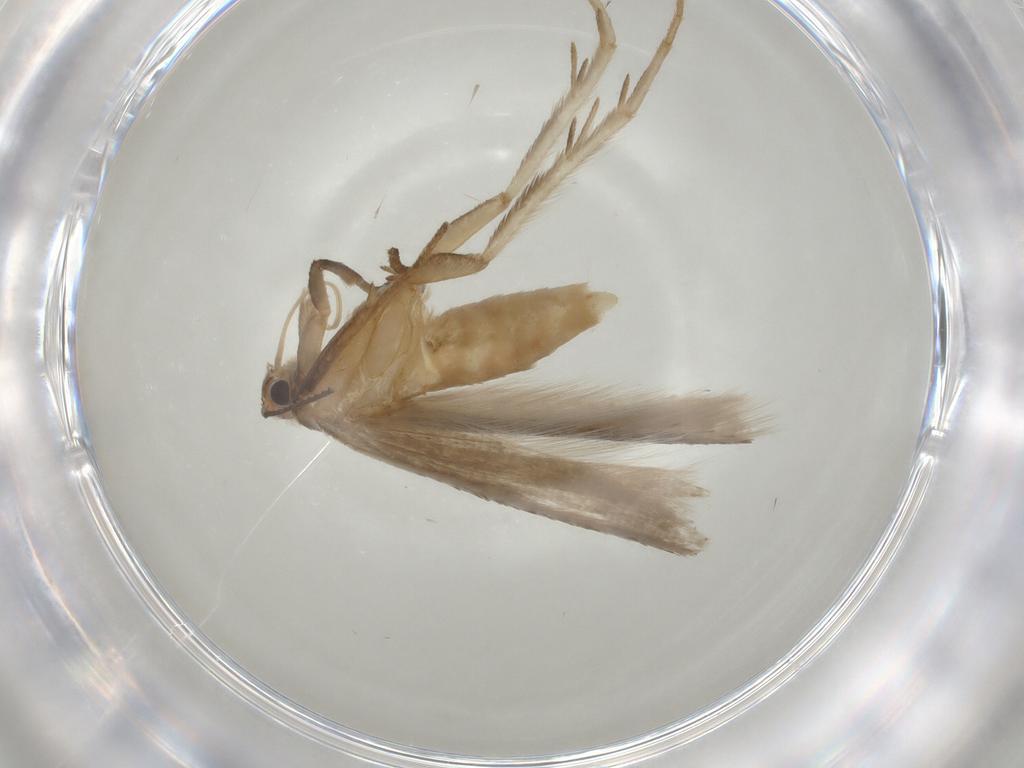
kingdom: Animalia
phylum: Arthropoda
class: Insecta
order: Lepidoptera
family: Gelechiidae
